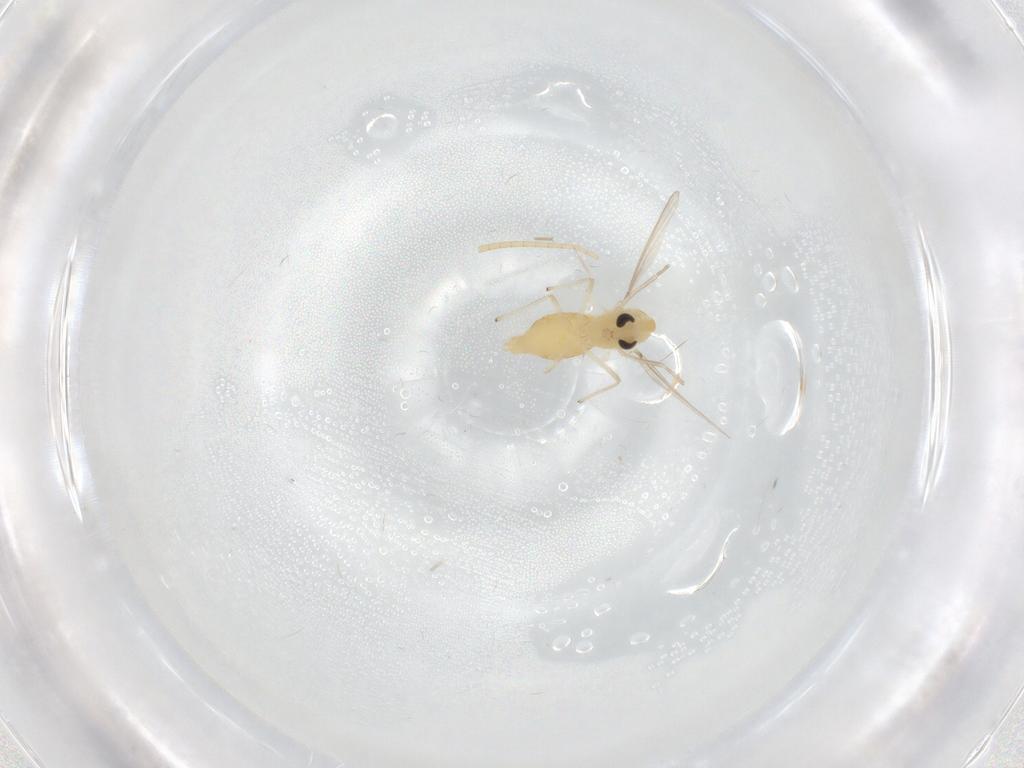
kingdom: Animalia
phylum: Arthropoda
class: Insecta
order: Diptera
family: Chironomidae
